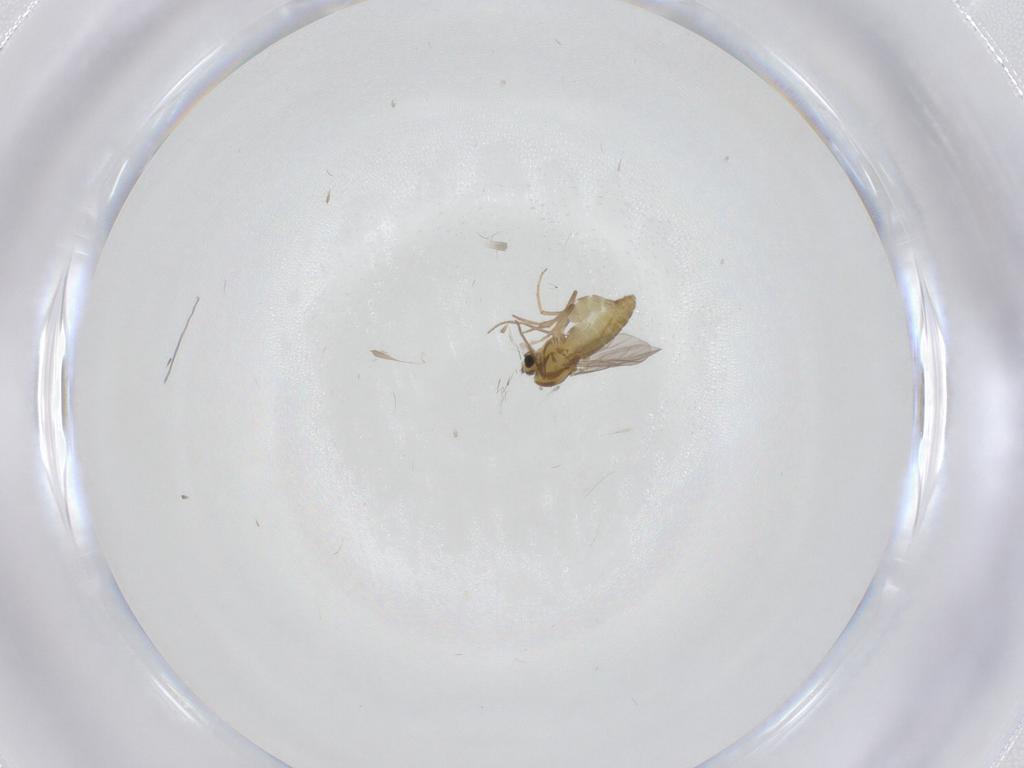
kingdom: Animalia
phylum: Arthropoda
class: Insecta
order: Diptera
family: Chironomidae
